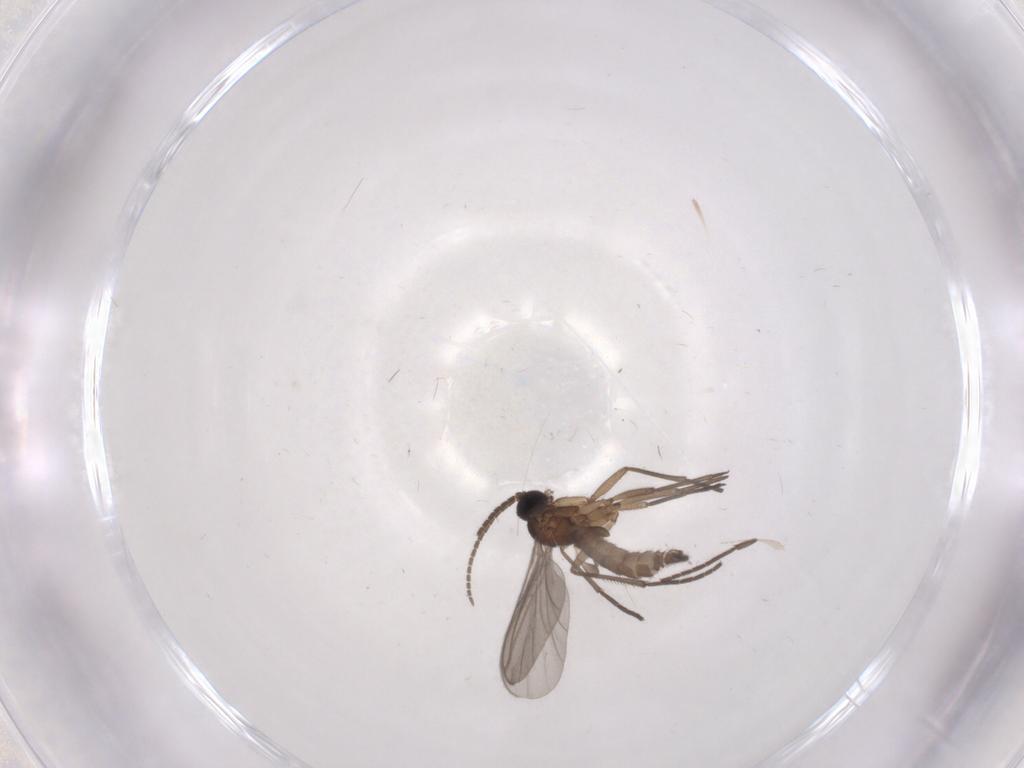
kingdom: Animalia
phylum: Arthropoda
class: Insecta
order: Diptera
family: Sciaridae
